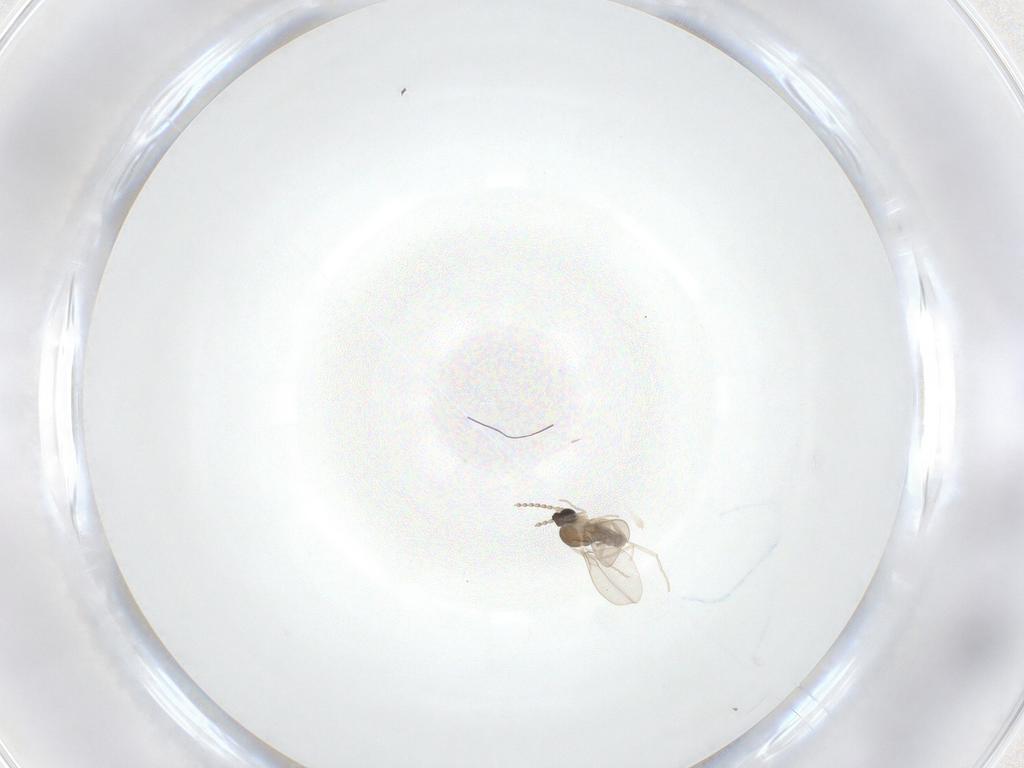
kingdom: Animalia
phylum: Arthropoda
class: Insecta
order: Diptera
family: Cecidomyiidae
